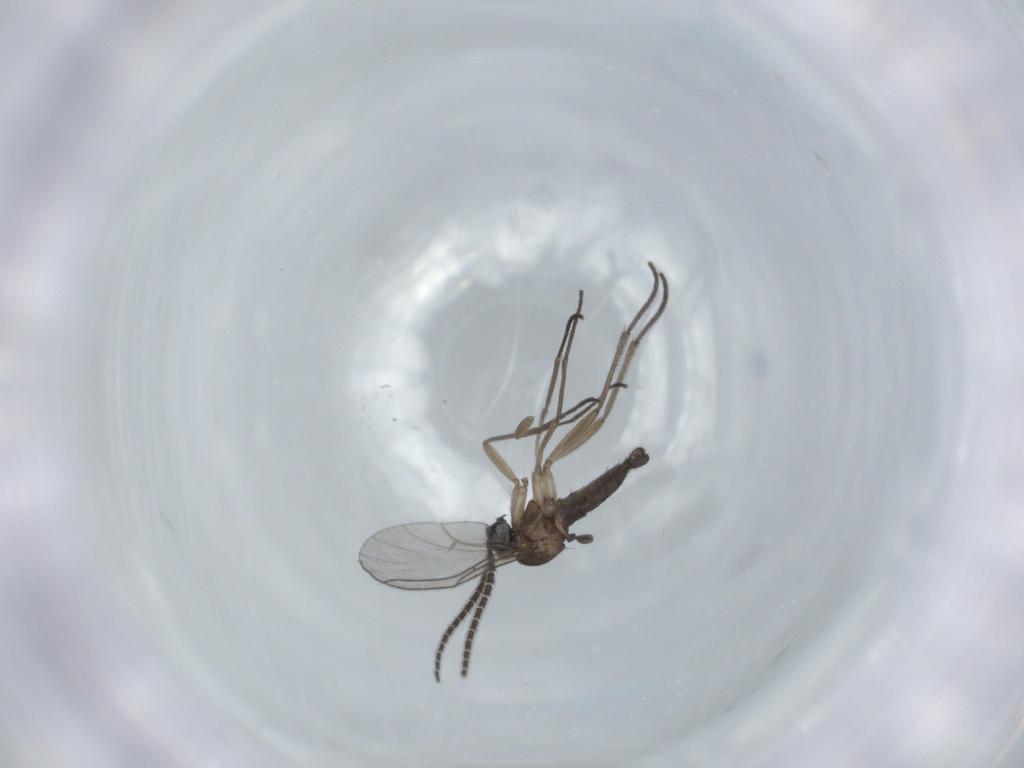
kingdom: Animalia
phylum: Arthropoda
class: Insecta
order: Diptera
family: Sciaridae
